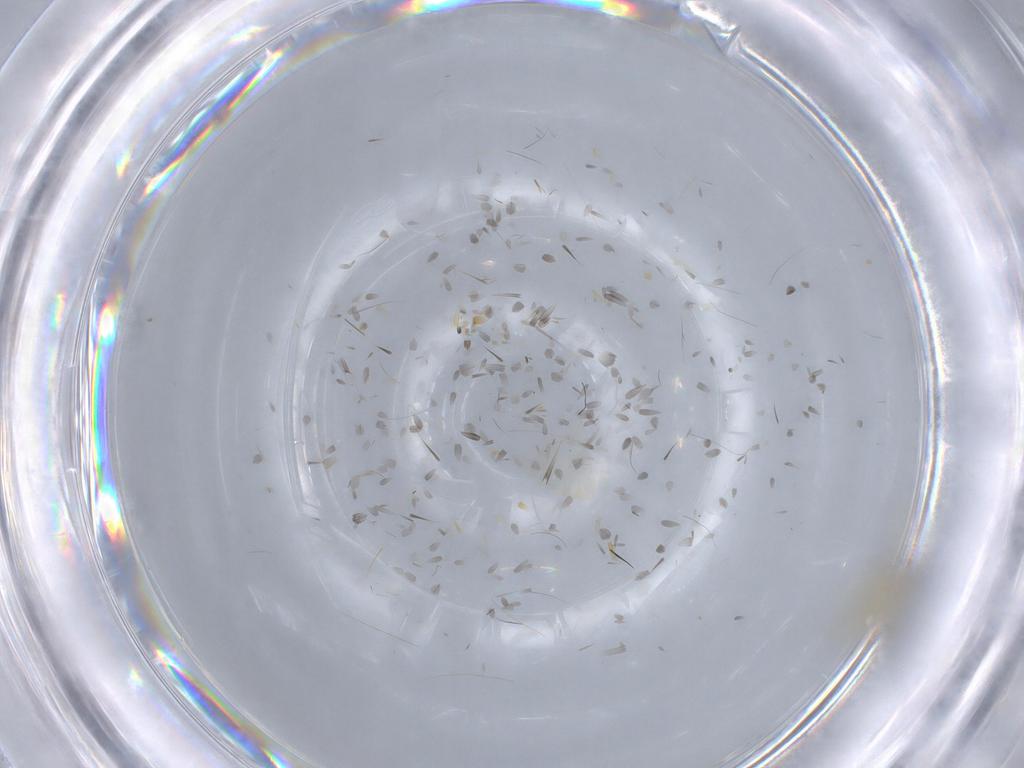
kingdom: Animalia
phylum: Arthropoda
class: Insecta
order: Diptera
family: Chironomidae
